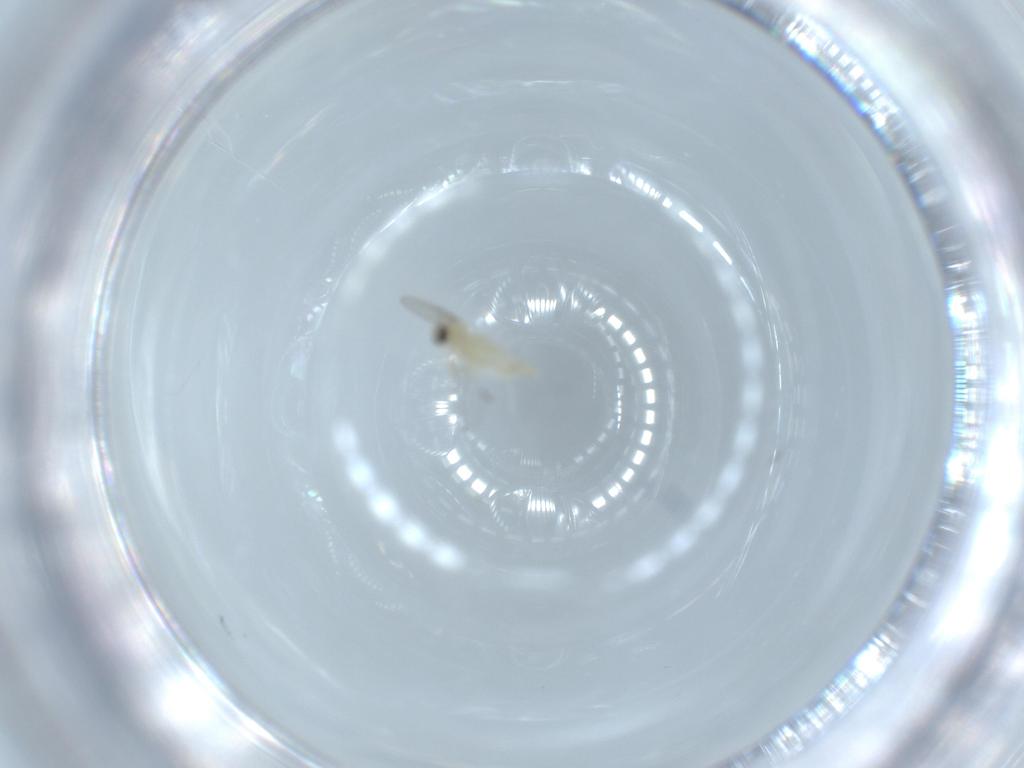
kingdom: Animalia
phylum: Arthropoda
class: Insecta
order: Diptera
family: Cecidomyiidae
